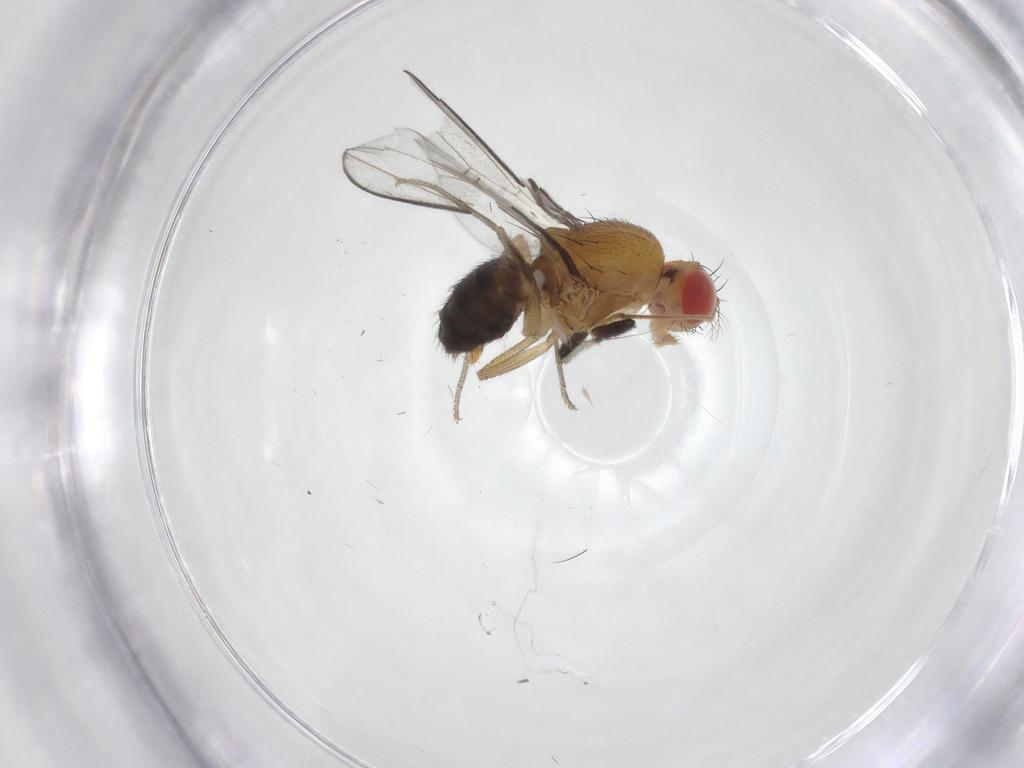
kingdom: Animalia
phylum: Arthropoda
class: Insecta
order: Diptera
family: Drosophilidae
